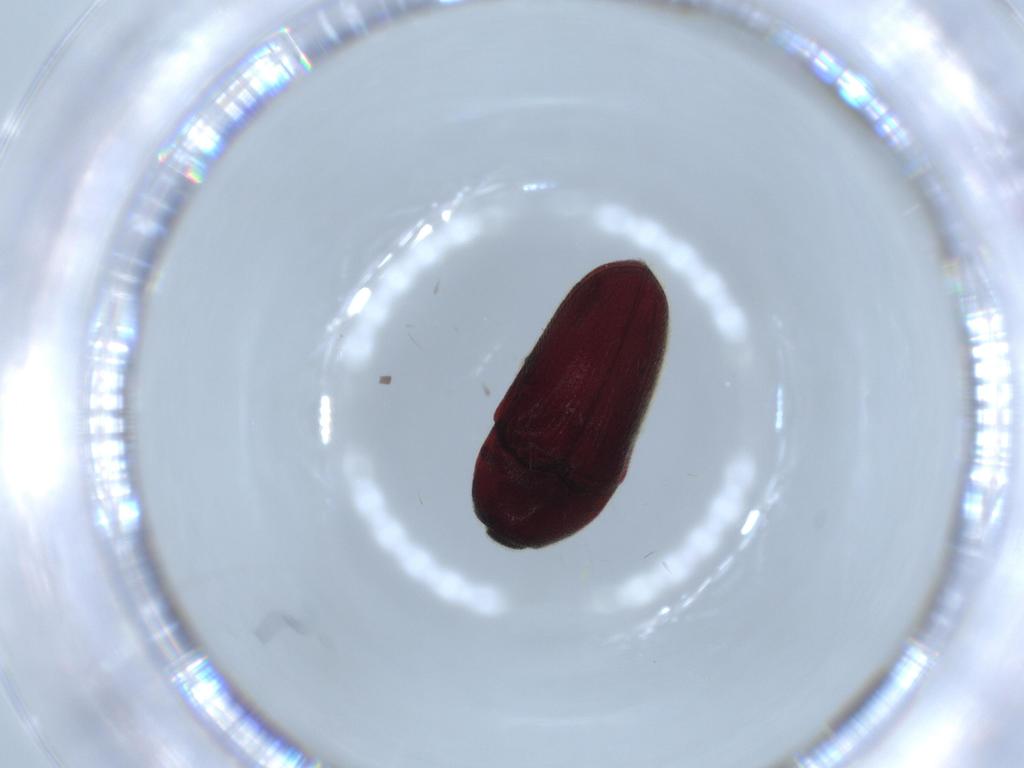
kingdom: Animalia
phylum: Arthropoda
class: Insecta
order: Coleoptera
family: Throscidae
